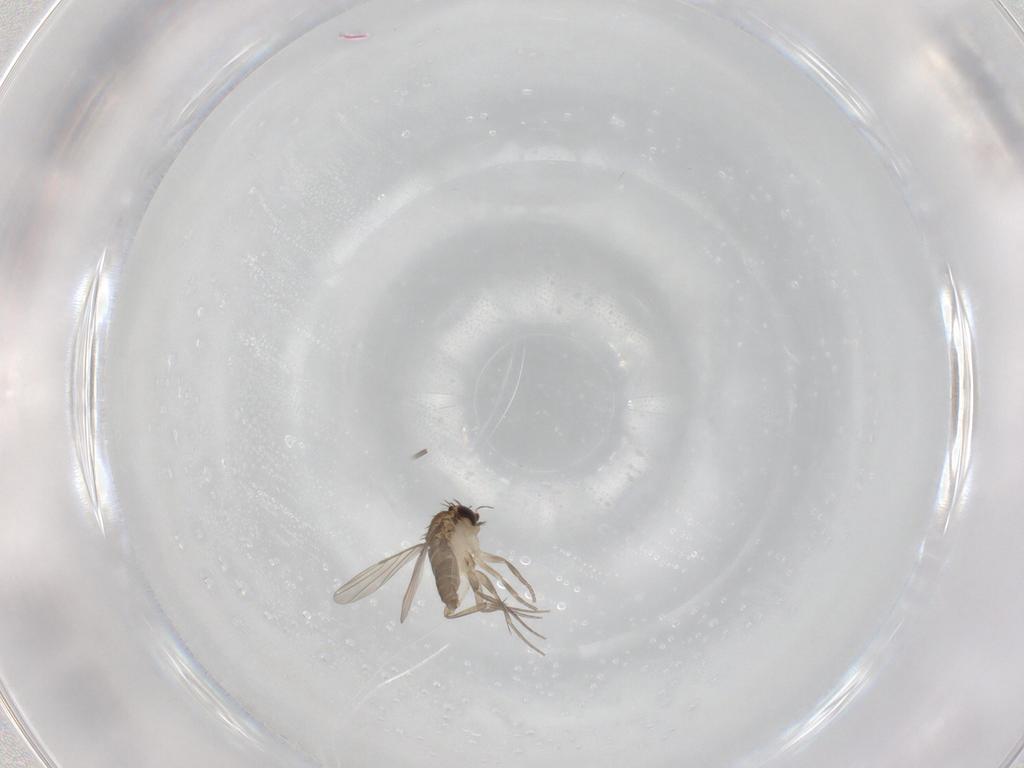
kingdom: Animalia
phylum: Arthropoda
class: Insecta
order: Diptera
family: Phoridae
